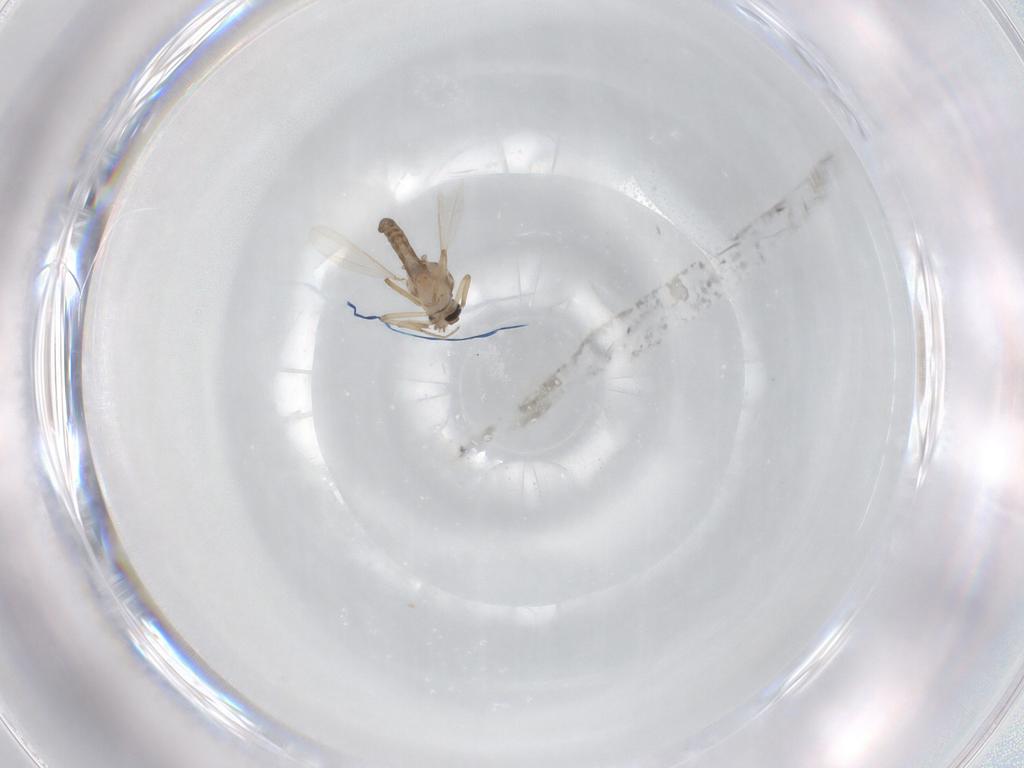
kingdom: Animalia
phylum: Arthropoda
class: Insecta
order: Diptera
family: Ceratopogonidae
